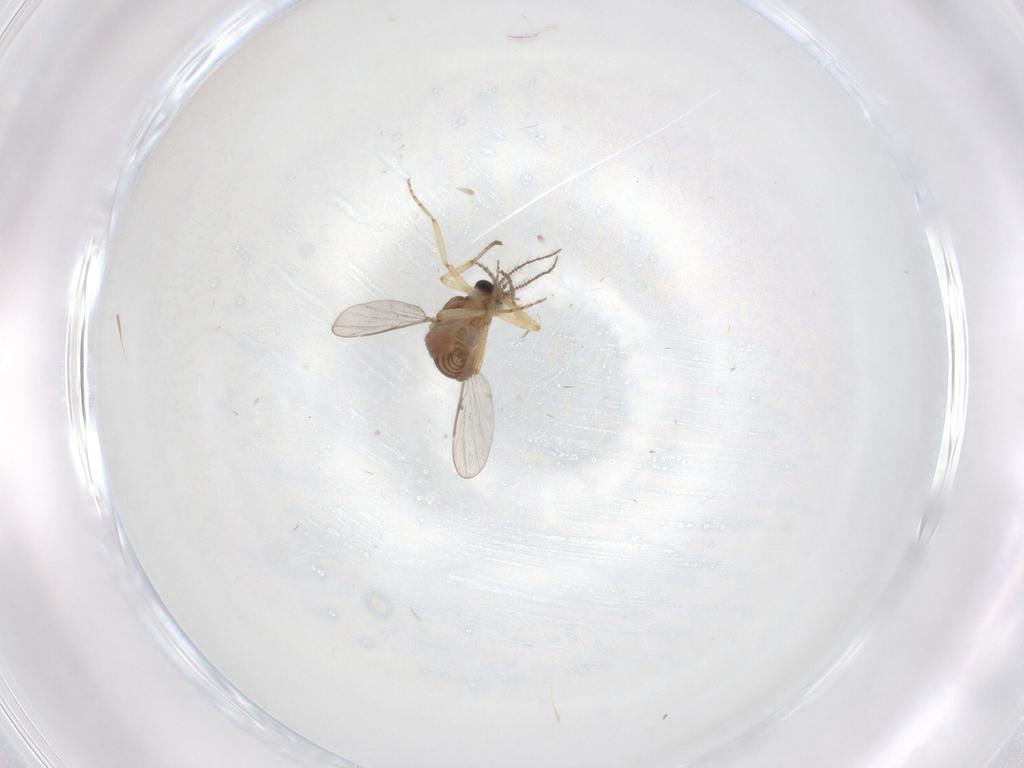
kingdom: Animalia
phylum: Arthropoda
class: Insecta
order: Diptera
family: Ceratopogonidae
